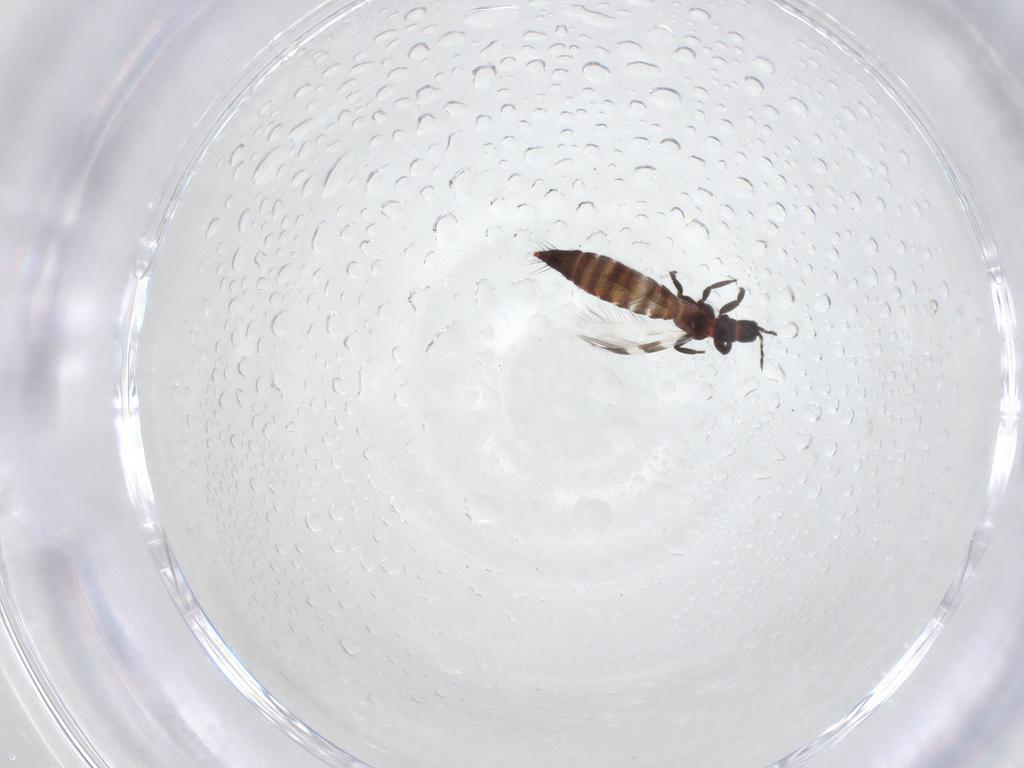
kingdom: Animalia
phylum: Arthropoda
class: Insecta
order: Thysanoptera
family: Aeolothripidae
